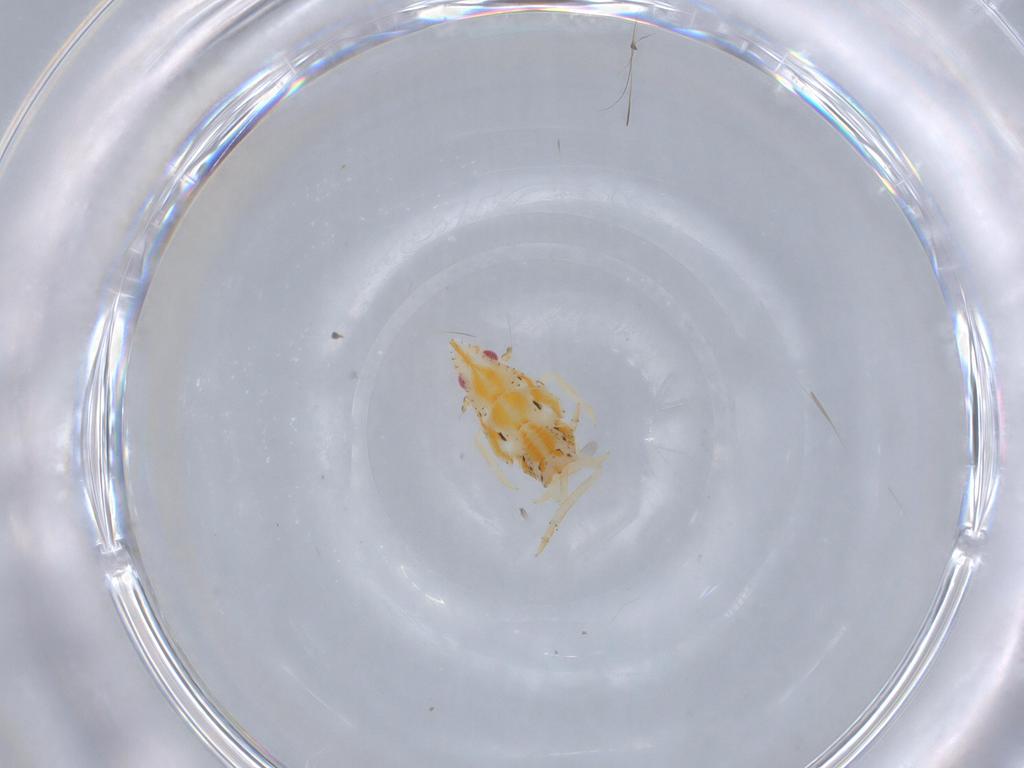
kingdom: Animalia
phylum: Arthropoda
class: Insecta
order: Hemiptera
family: Flatidae
